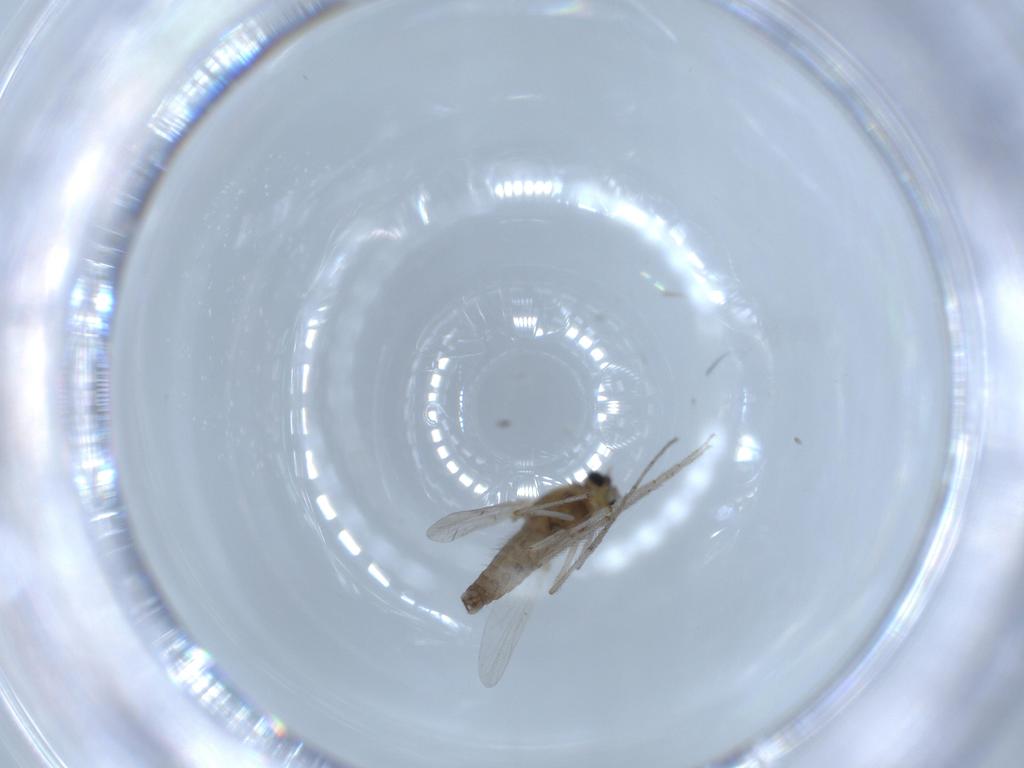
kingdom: Animalia
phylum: Arthropoda
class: Insecta
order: Diptera
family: Chironomidae
